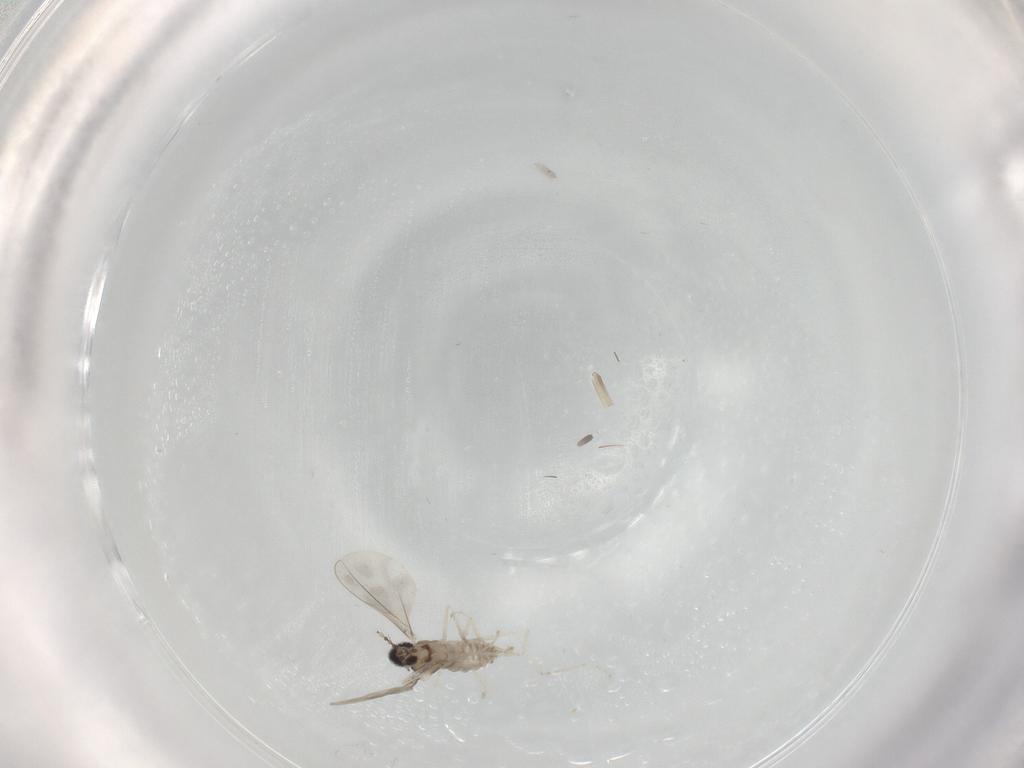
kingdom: Animalia
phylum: Arthropoda
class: Insecta
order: Diptera
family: Cecidomyiidae
